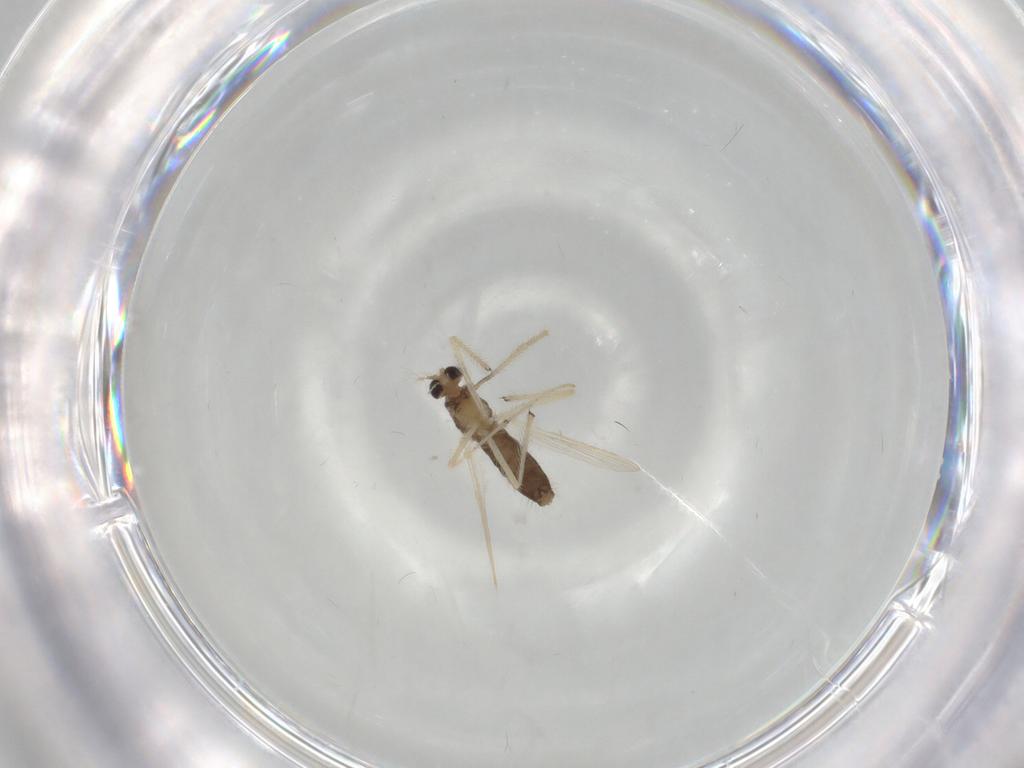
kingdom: Animalia
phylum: Arthropoda
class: Insecta
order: Diptera
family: Chironomidae
